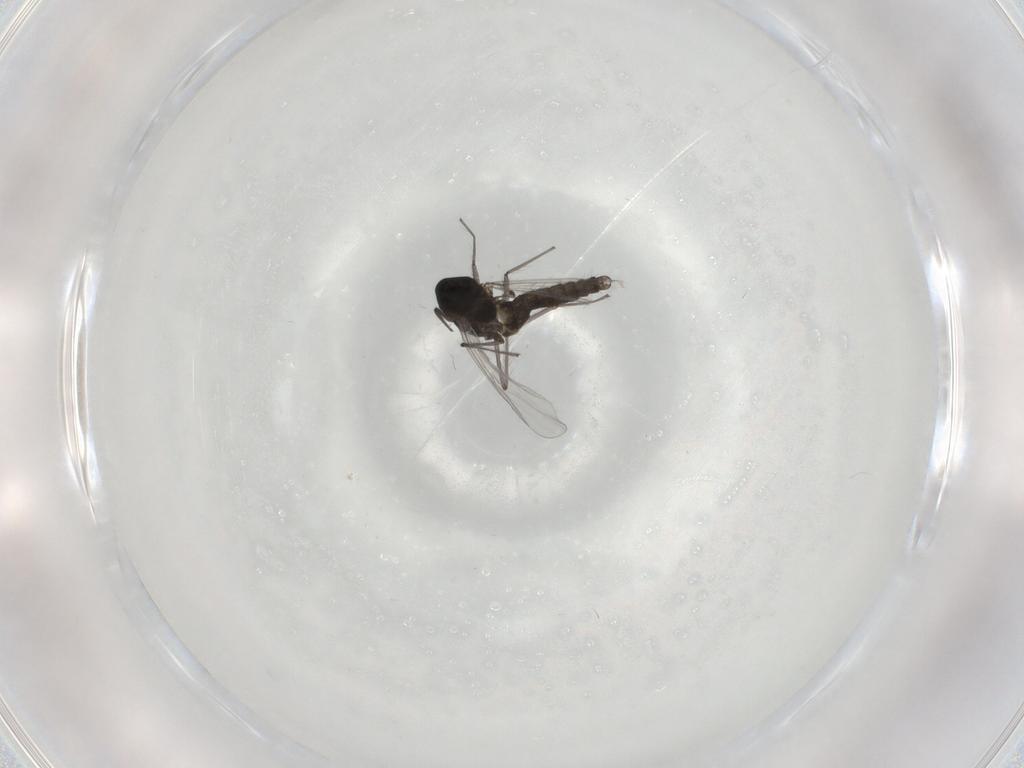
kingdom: Animalia
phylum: Arthropoda
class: Insecta
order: Diptera
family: Chironomidae
